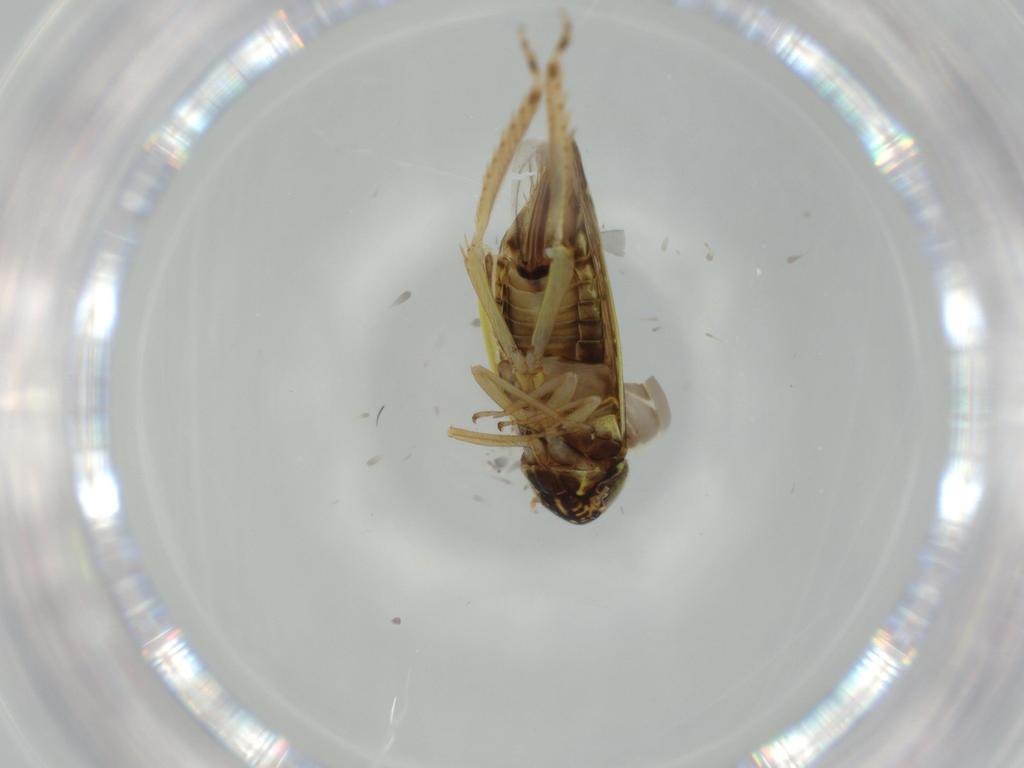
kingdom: Animalia
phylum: Arthropoda
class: Insecta
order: Hemiptera
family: Cicadellidae
